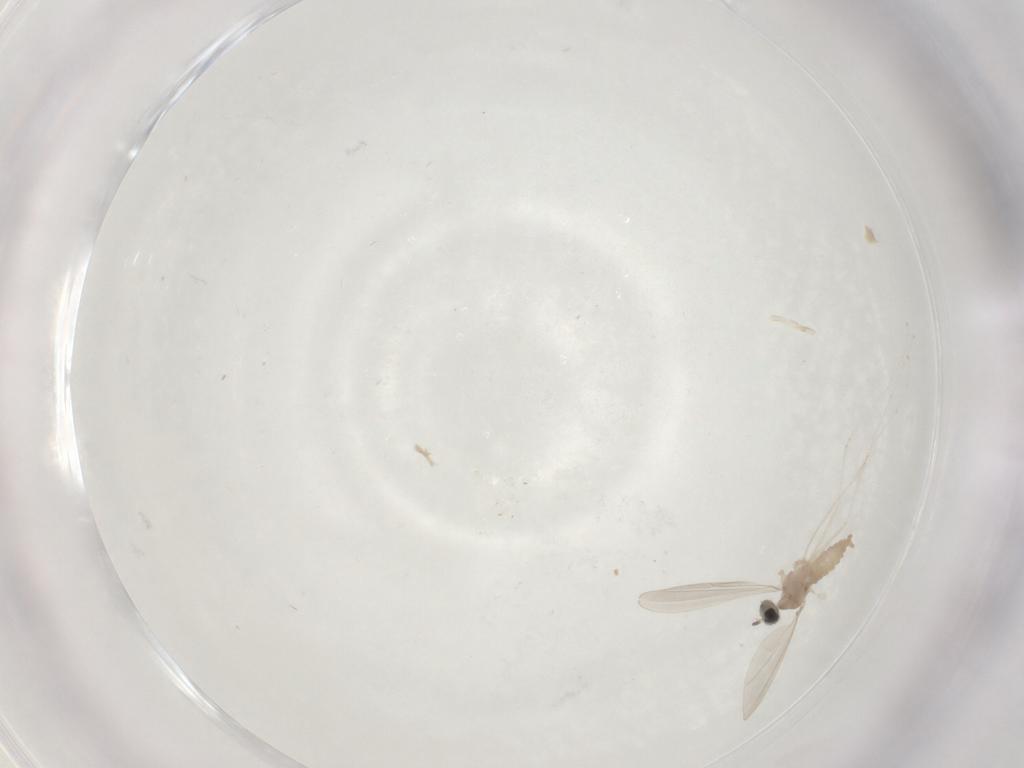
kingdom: Animalia
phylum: Arthropoda
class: Insecta
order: Diptera
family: Cecidomyiidae
